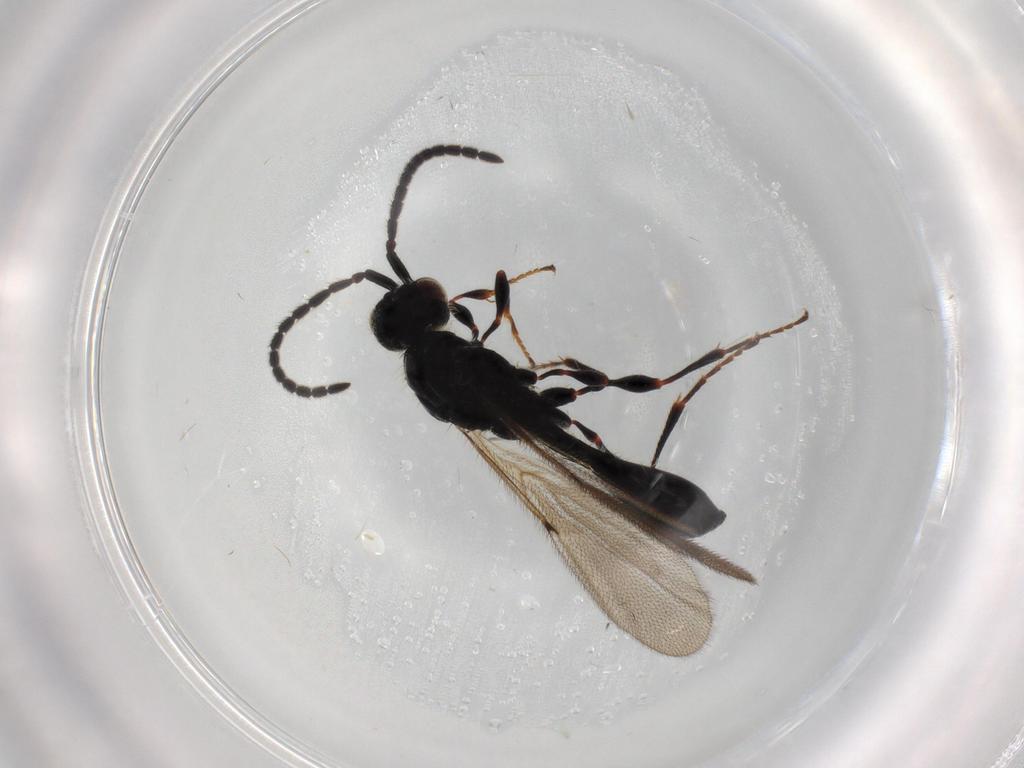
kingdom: Animalia
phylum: Arthropoda
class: Insecta
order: Hymenoptera
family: Diapriidae
